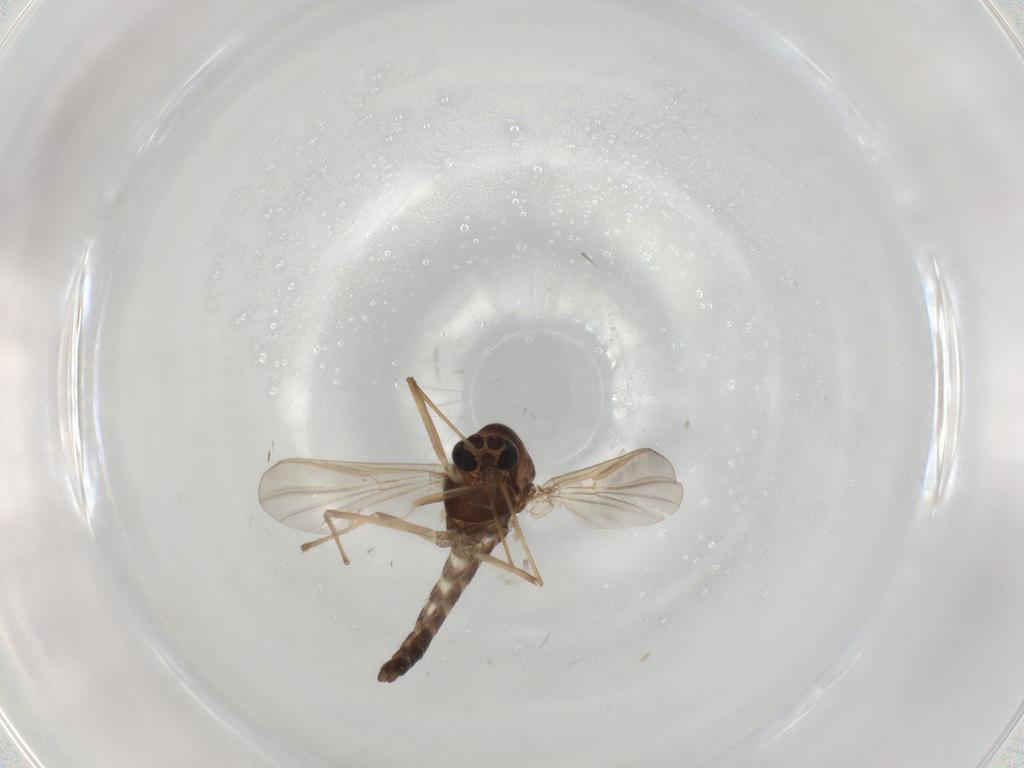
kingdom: Animalia
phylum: Arthropoda
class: Insecta
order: Diptera
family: Chironomidae
